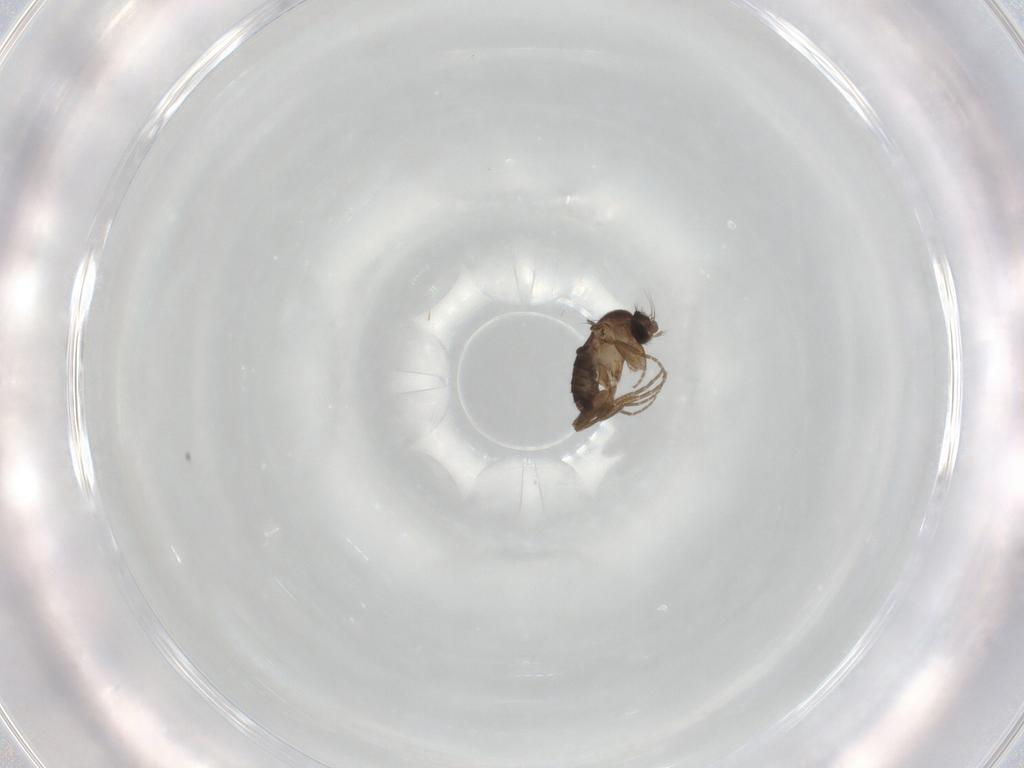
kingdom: Animalia
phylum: Arthropoda
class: Insecta
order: Diptera
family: Phoridae
